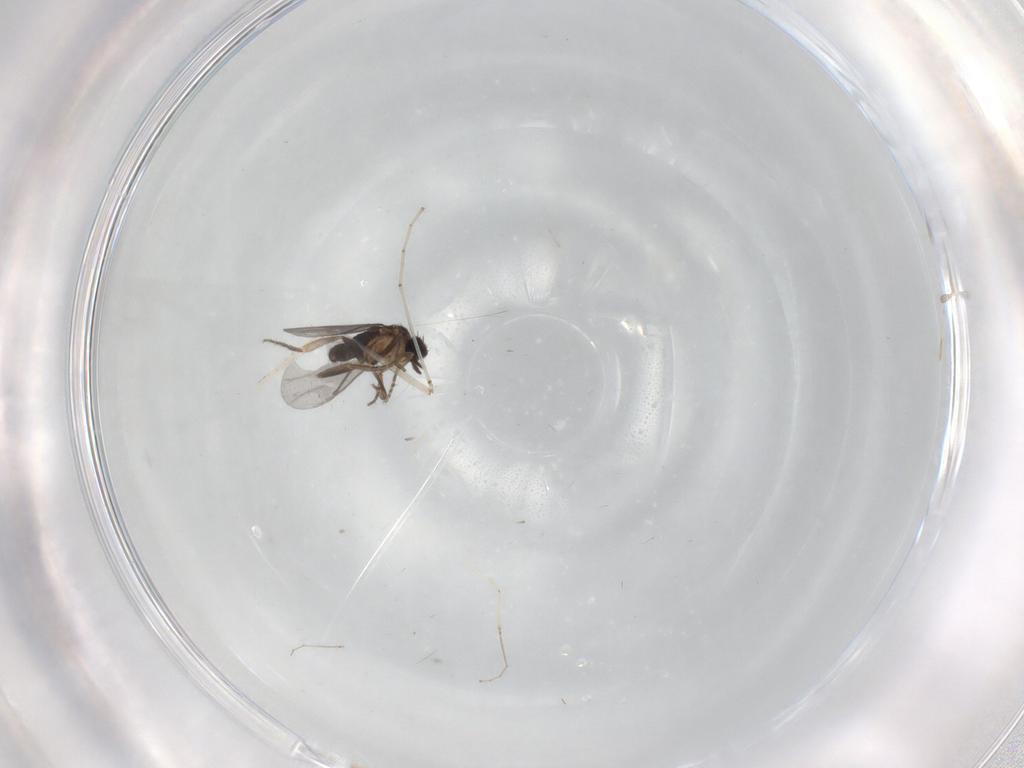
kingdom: Animalia
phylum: Arthropoda
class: Insecta
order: Diptera
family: Cecidomyiidae
